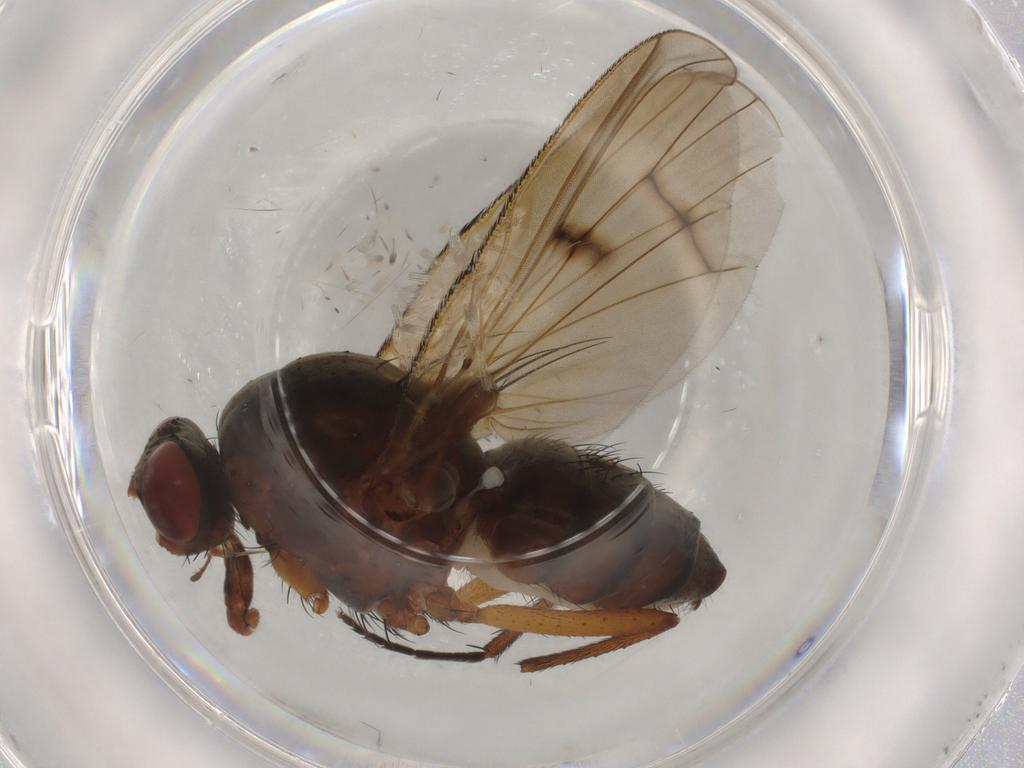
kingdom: Animalia
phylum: Arthropoda
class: Insecta
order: Diptera
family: Anthomyiidae
